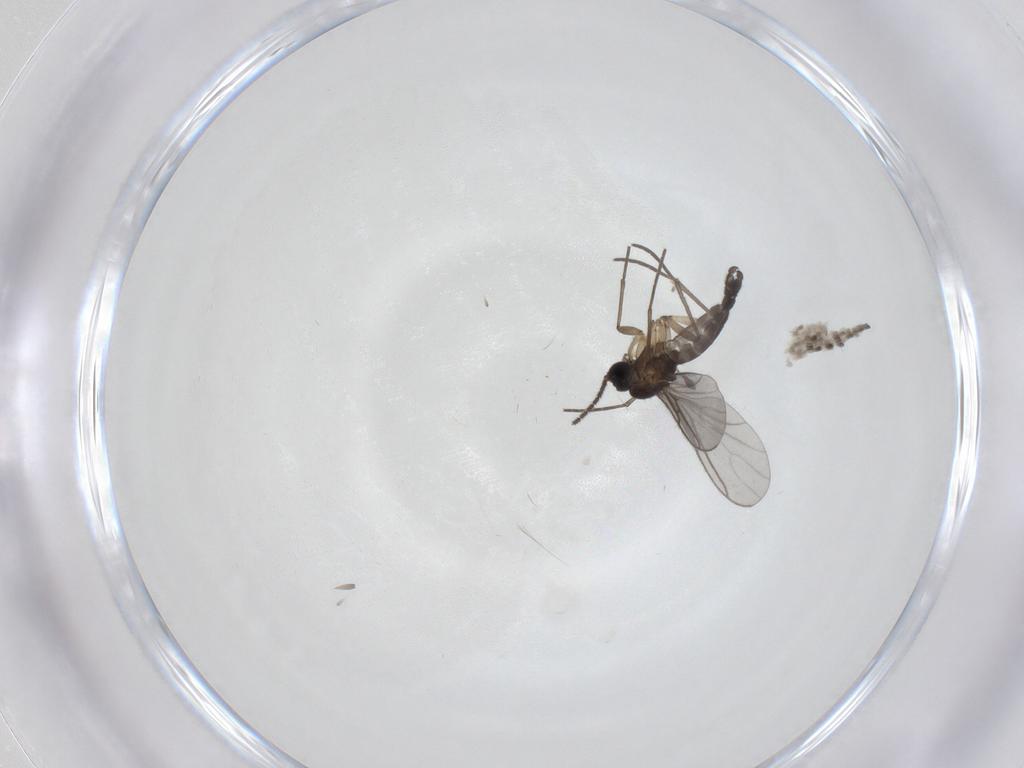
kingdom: Animalia
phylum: Arthropoda
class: Insecta
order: Diptera
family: Sciaridae
